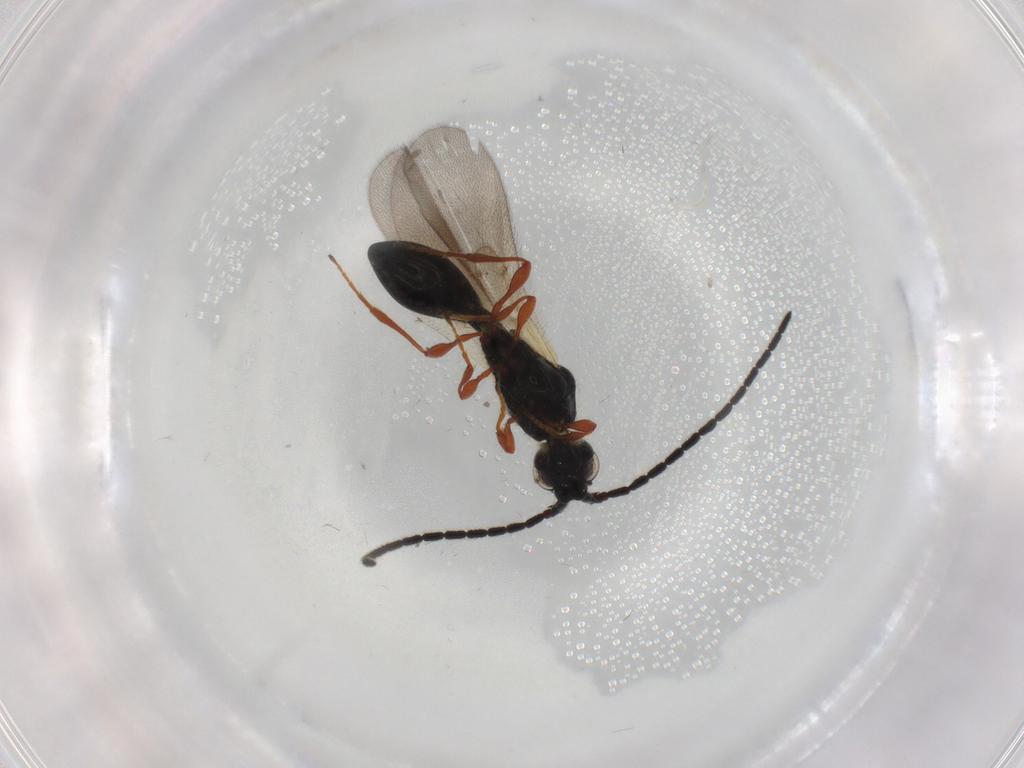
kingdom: Animalia
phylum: Arthropoda
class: Insecta
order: Hymenoptera
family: Diapriidae
